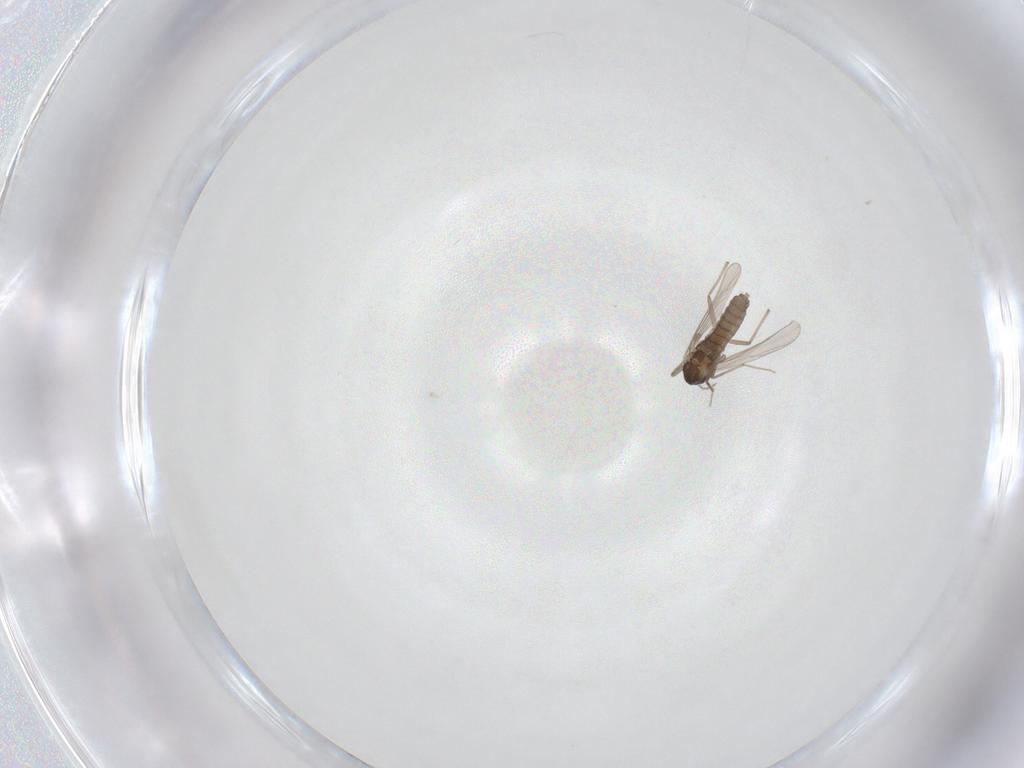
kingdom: Animalia
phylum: Arthropoda
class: Insecta
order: Diptera
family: Chironomidae
